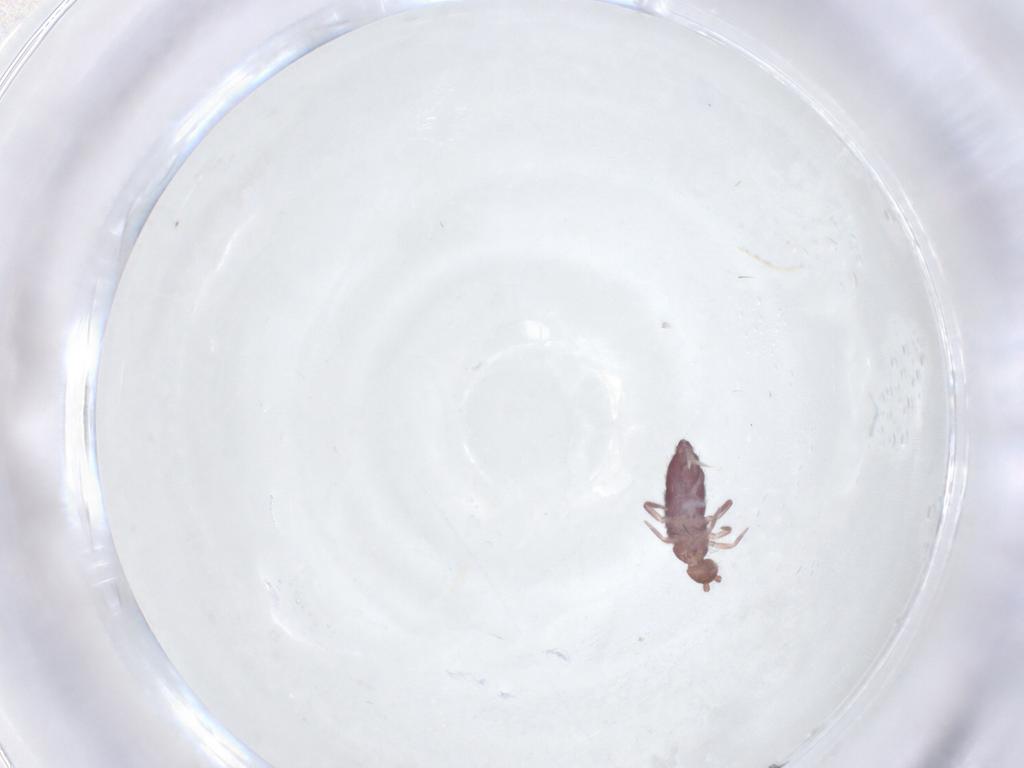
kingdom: Animalia
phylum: Arthropoda
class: Collembola
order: Entomobryomorpha
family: Entomobryidae
